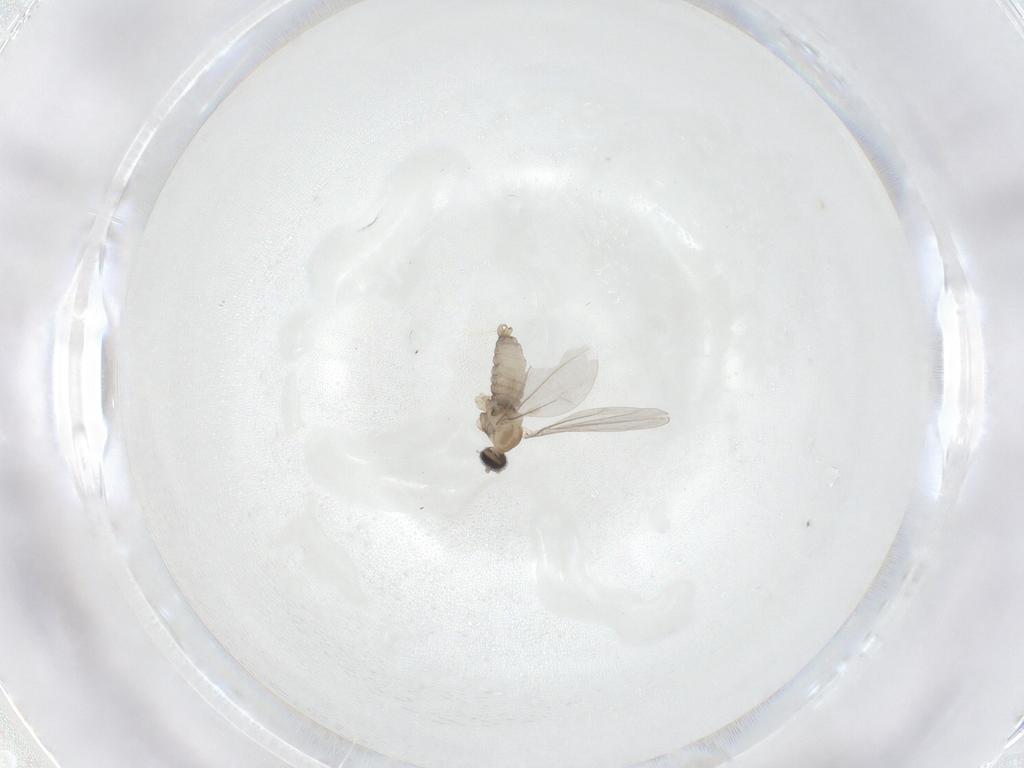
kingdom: Animalia
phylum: Arthropoda
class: Insecta
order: Diptera
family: Cecidomyiidae
